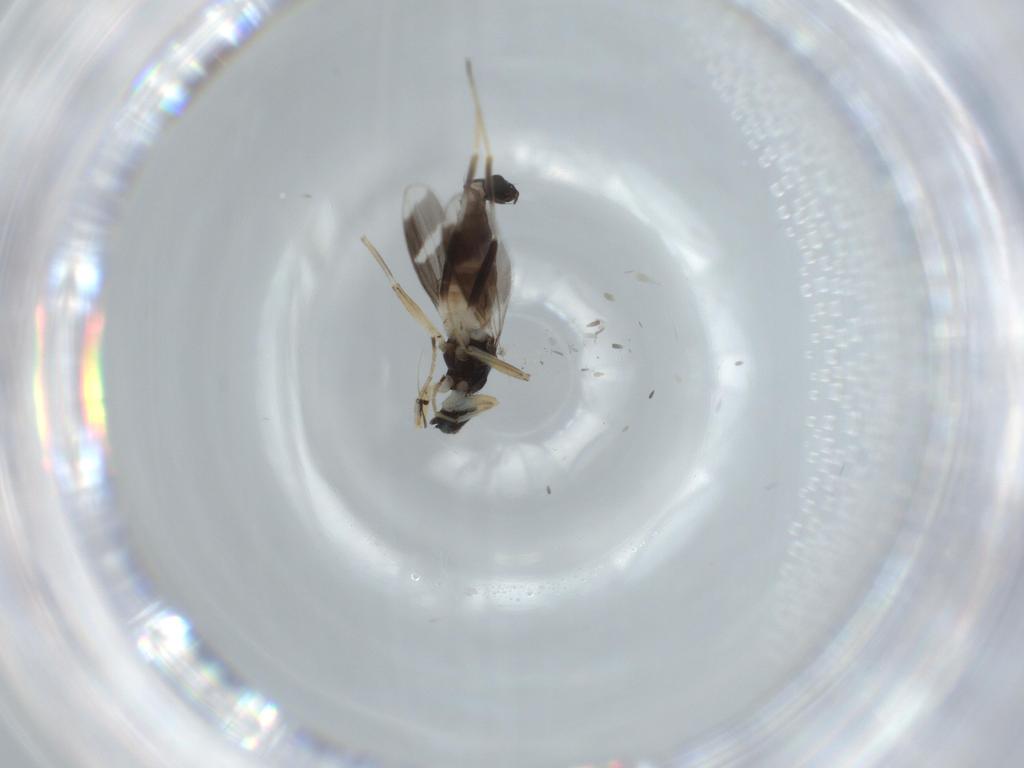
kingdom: Animalia
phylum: Arthropoda
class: Insecta
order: Diptera
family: Hybotidae
